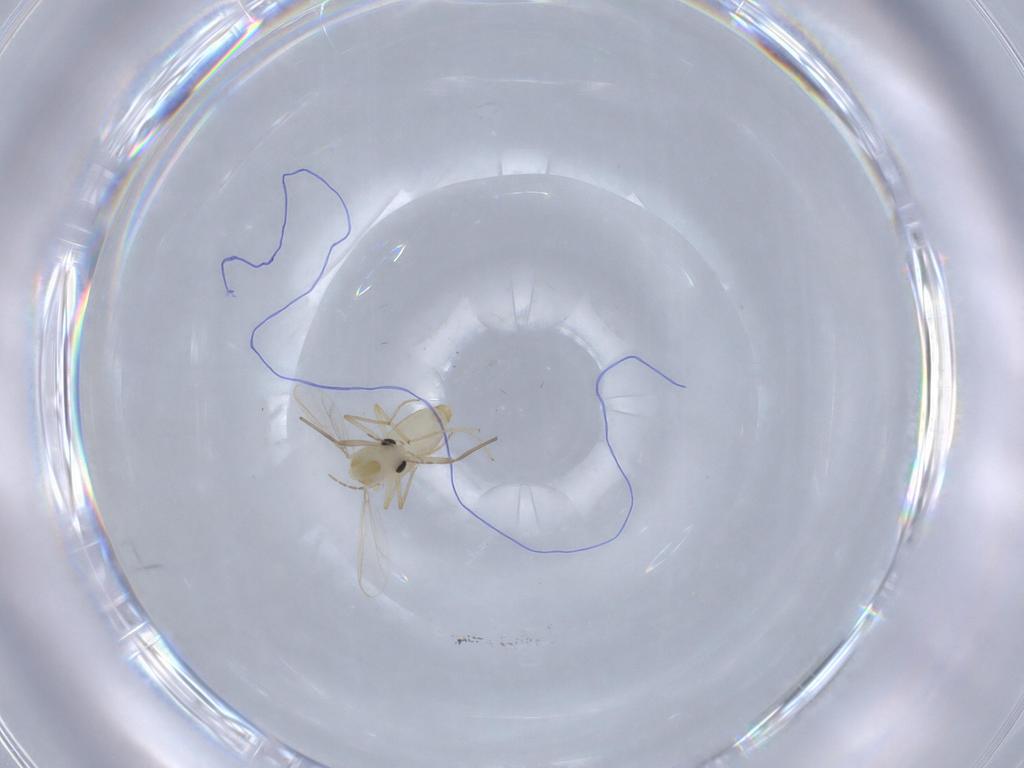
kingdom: Animalia
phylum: Arthropoda
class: Insecta
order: Diptera
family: Chironomidae
